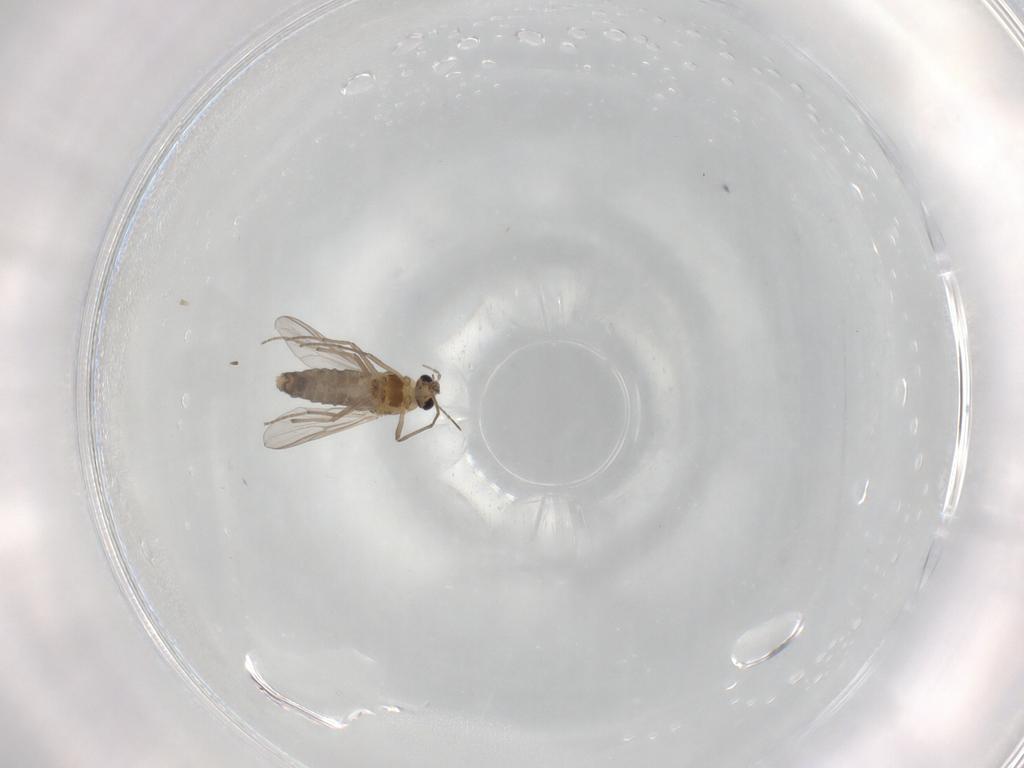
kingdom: Animalia
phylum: Arthropoda
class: Insecta
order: Diptera
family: Chironomidae
